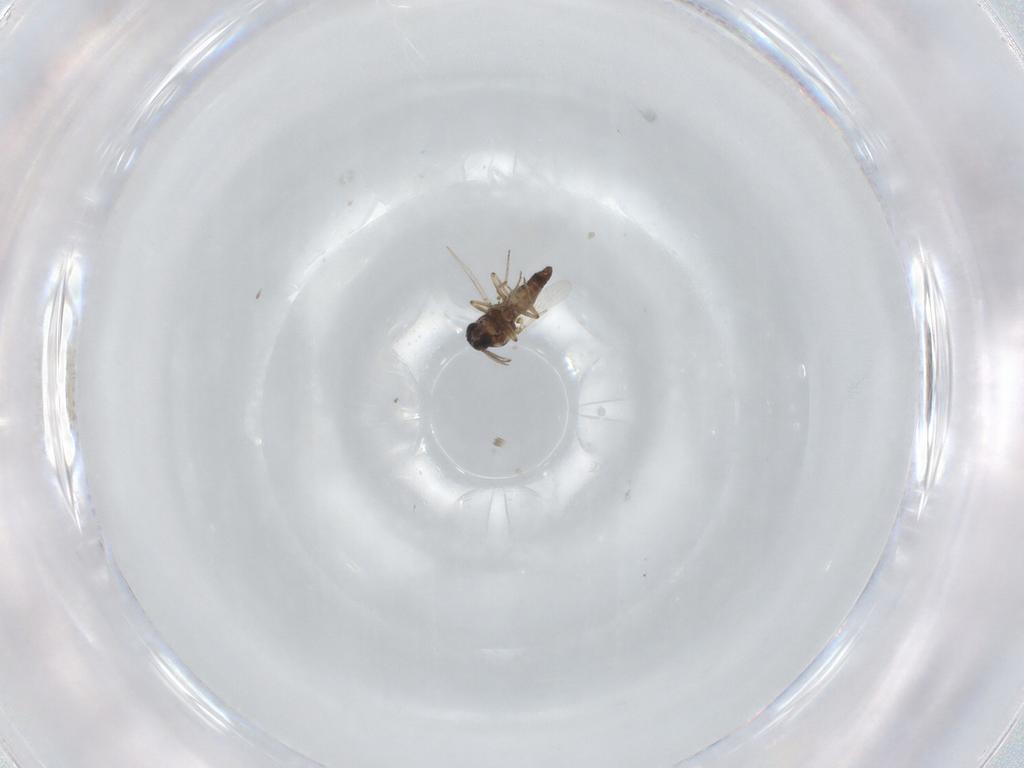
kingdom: Animalia
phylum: Arthropoda
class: Insecta
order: Diptera
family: Ceratopogonidae
